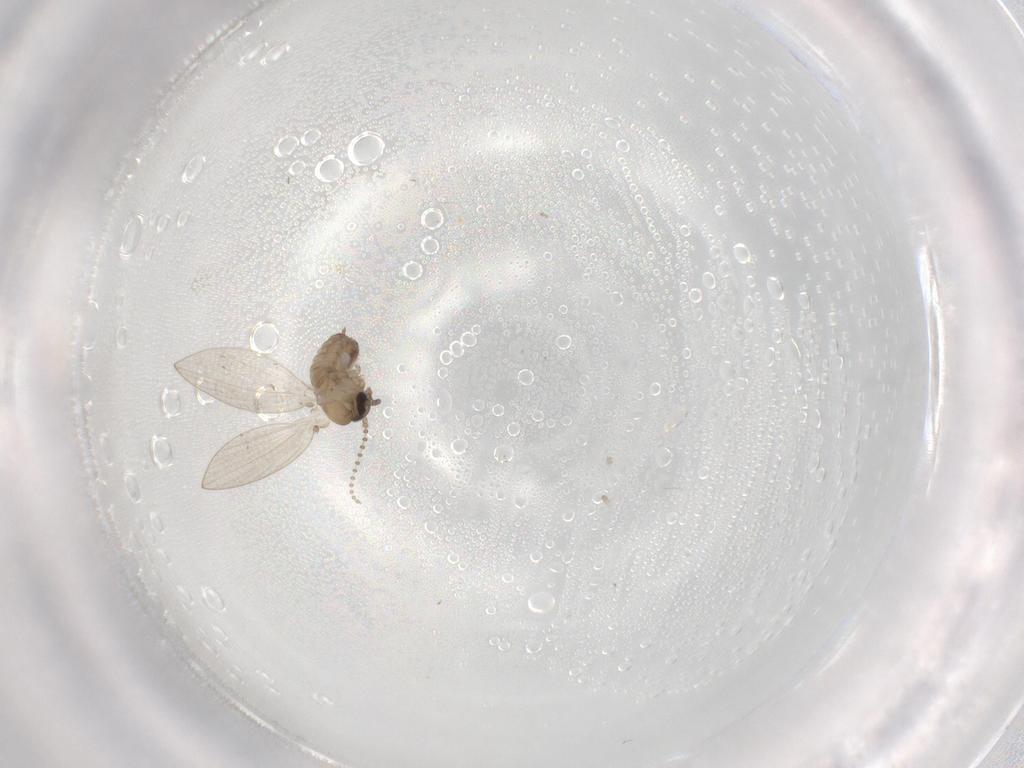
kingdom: Animalia
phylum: Arthropoda
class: Insecta
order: Diptera
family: Psychodidae
